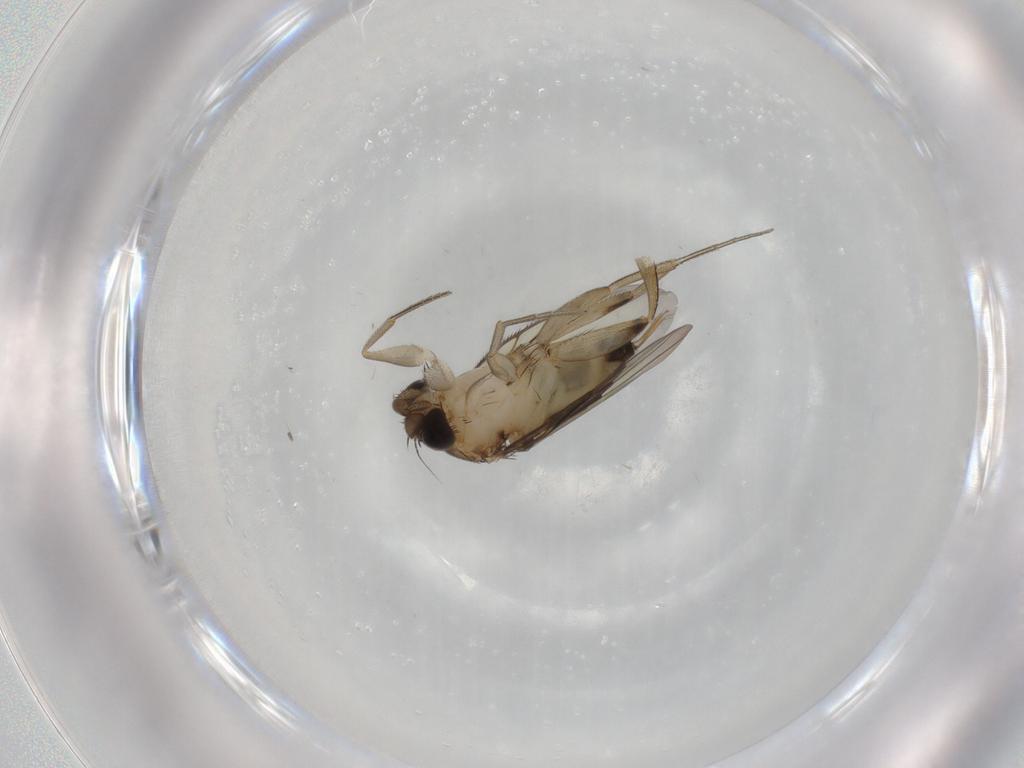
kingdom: Animalia
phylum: Arthropoda
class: Insecta
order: Diptera
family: Phoridae
